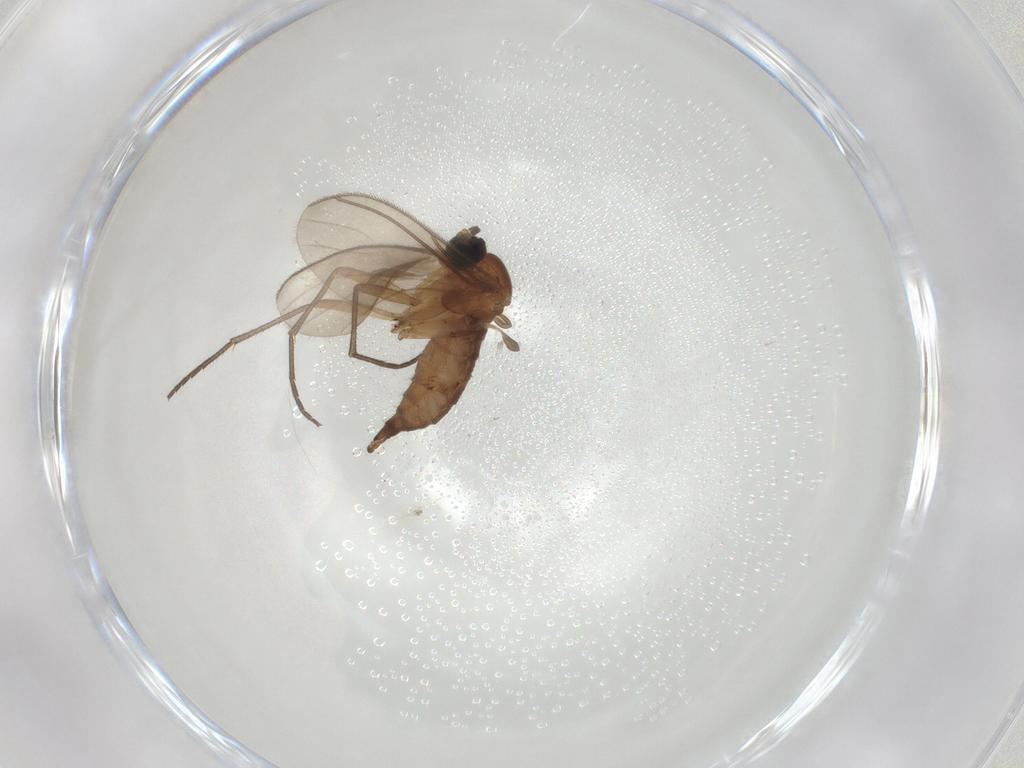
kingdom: Animalia
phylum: Arthropoda
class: Insecta
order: Diptera
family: Sciaridae
